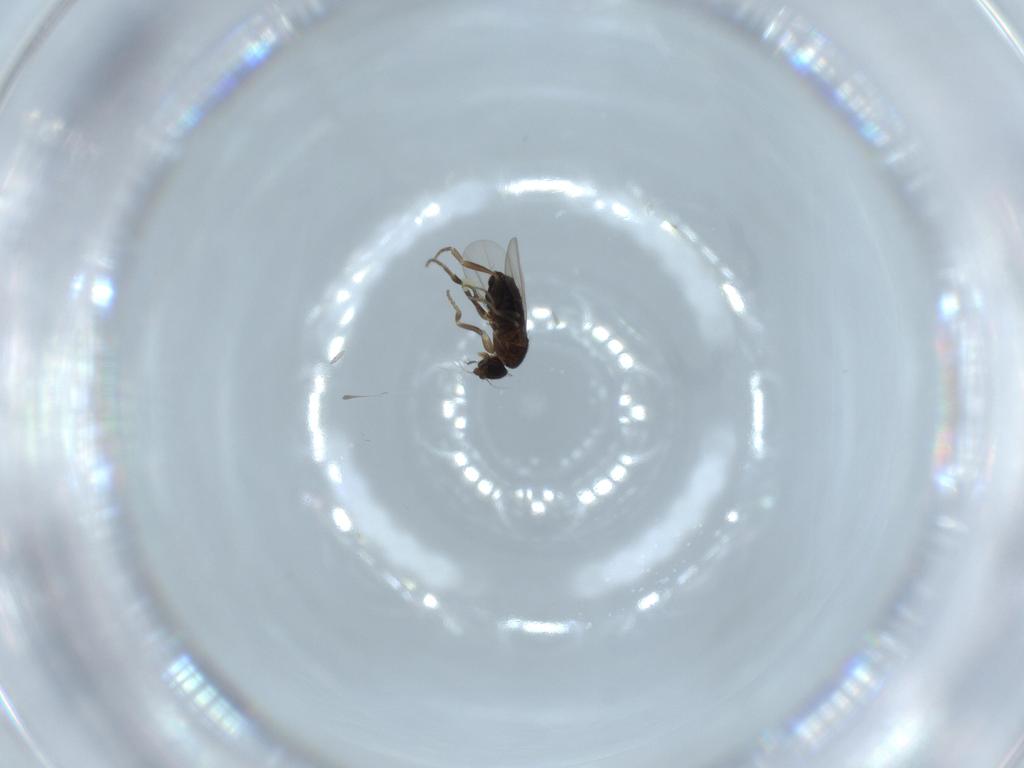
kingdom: Animalia
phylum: Arthropoda
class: Insecta
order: Diptera
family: Phoridae
